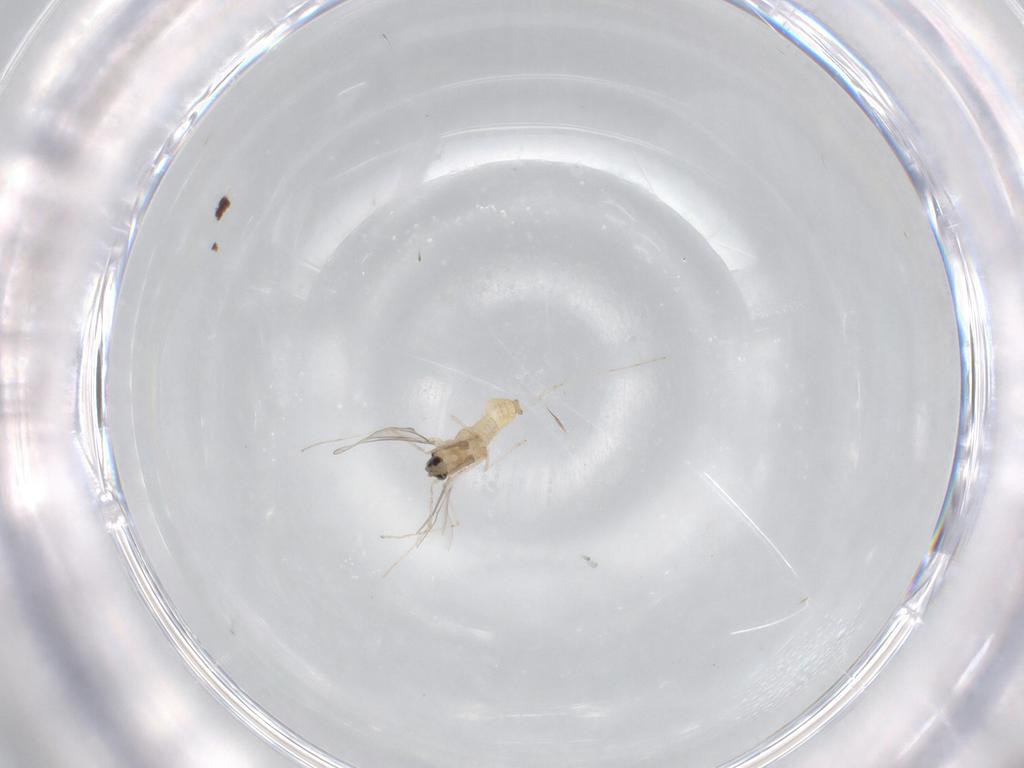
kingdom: Animalia
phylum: Arthropoda
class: Insecta
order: Diptera
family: Cecidomyiidae
